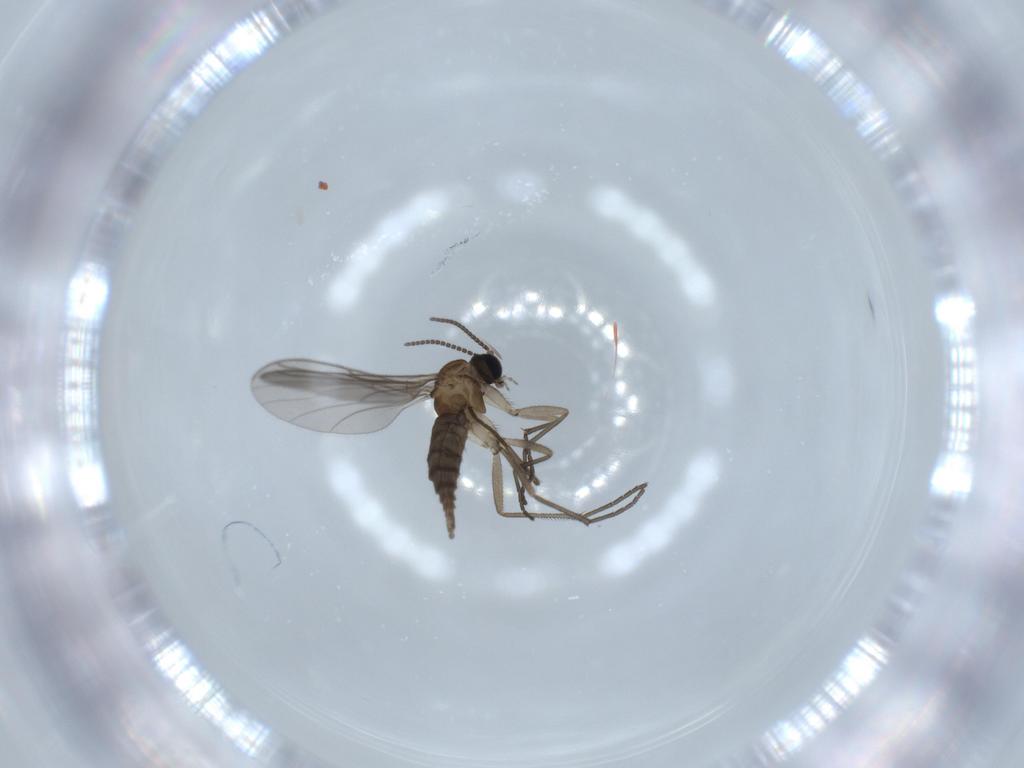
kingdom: Animalia
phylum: Arthropoda
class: Insecta
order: Diptera
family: Sciaridae
